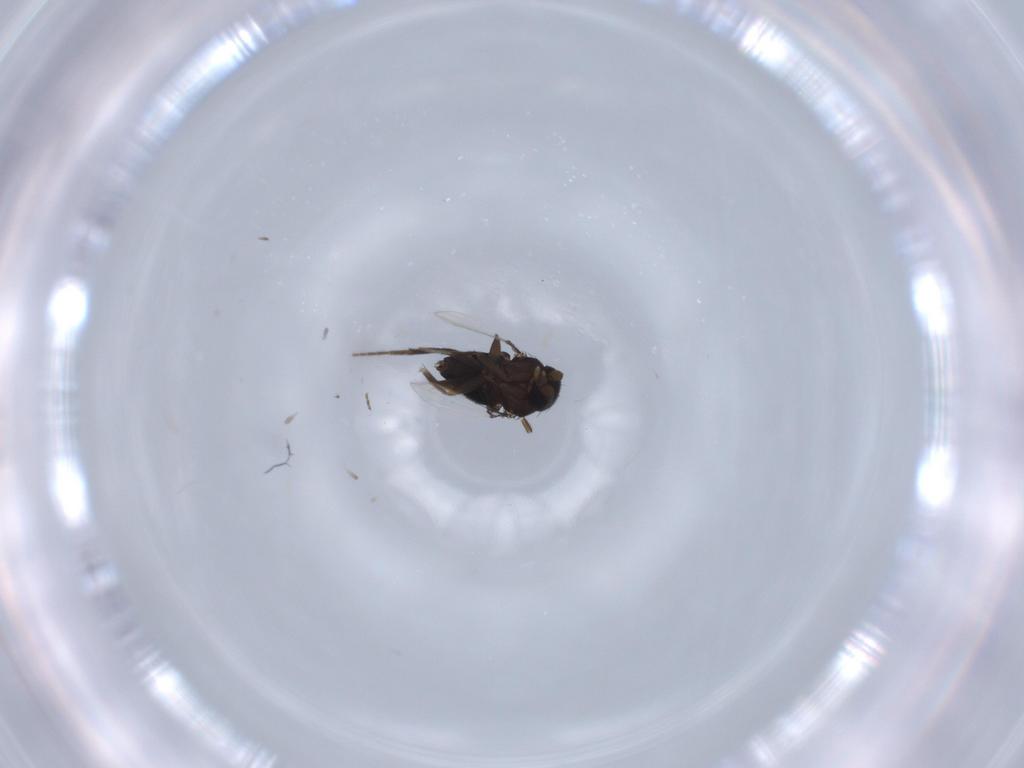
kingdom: Animalia
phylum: Arthropoda
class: Insecta
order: Diptera
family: Phoridae
